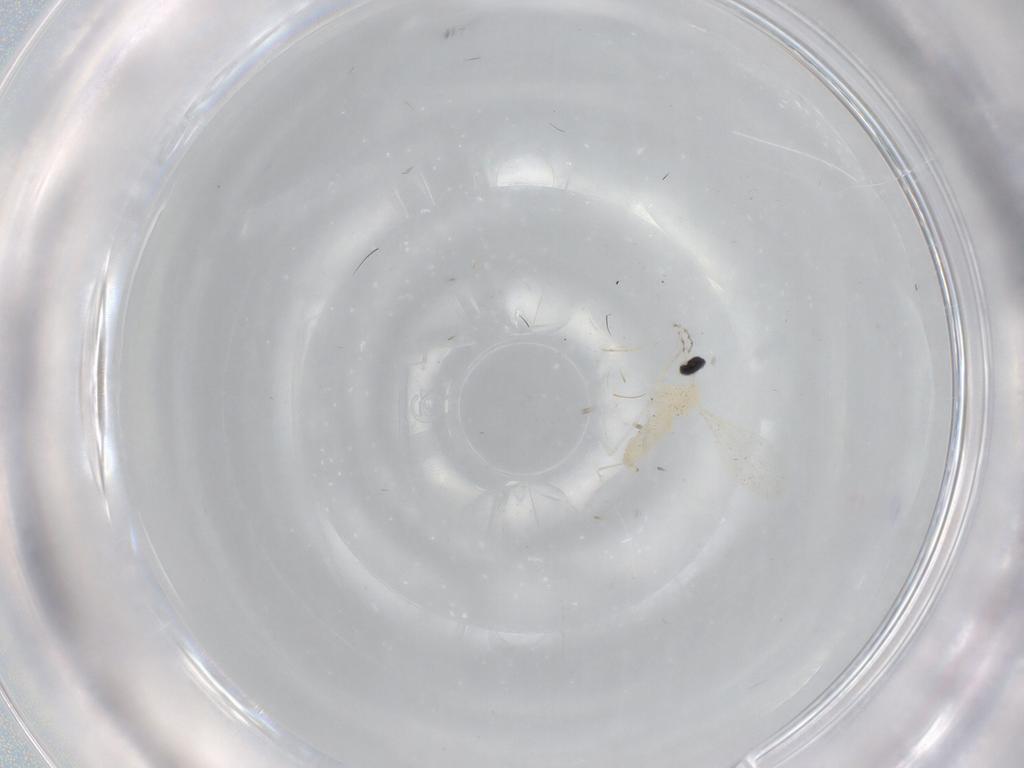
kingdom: Animalia
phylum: Arthropoda
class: Insecta
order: Diptera
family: Cecidomyiidae
